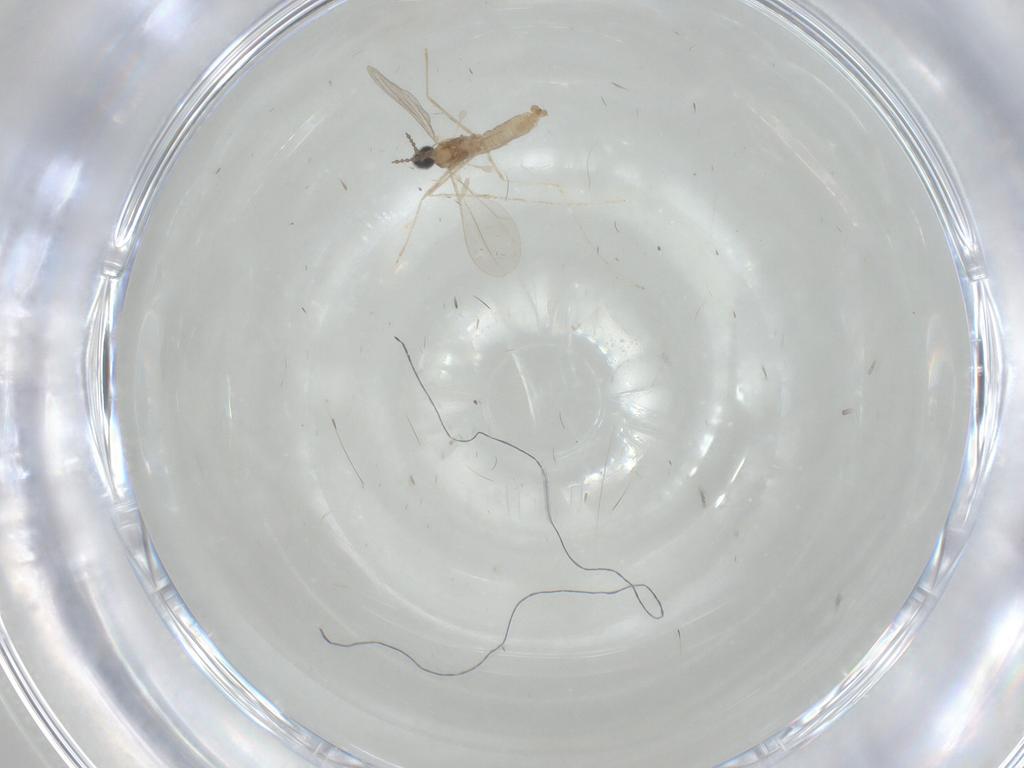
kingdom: Animalia
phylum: Arthropoda
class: Insecta
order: Diptera
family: Cecidomyiidae
